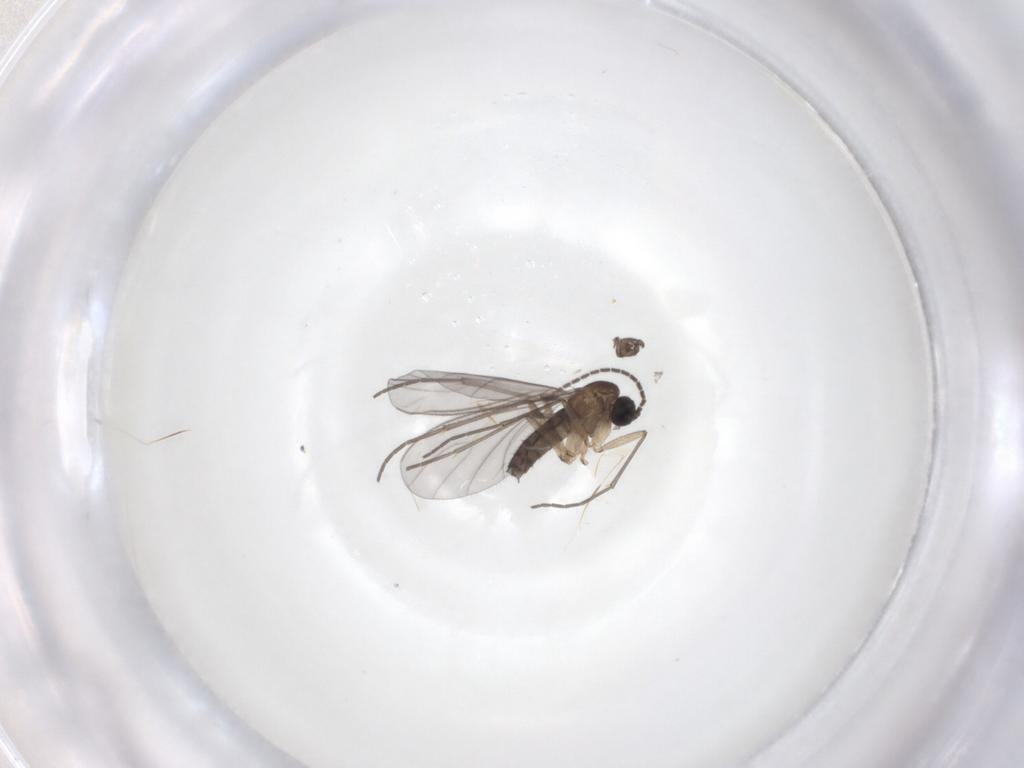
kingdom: Animalia
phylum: Arthropoda
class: Insecta
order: Diptera
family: Sciaridae
